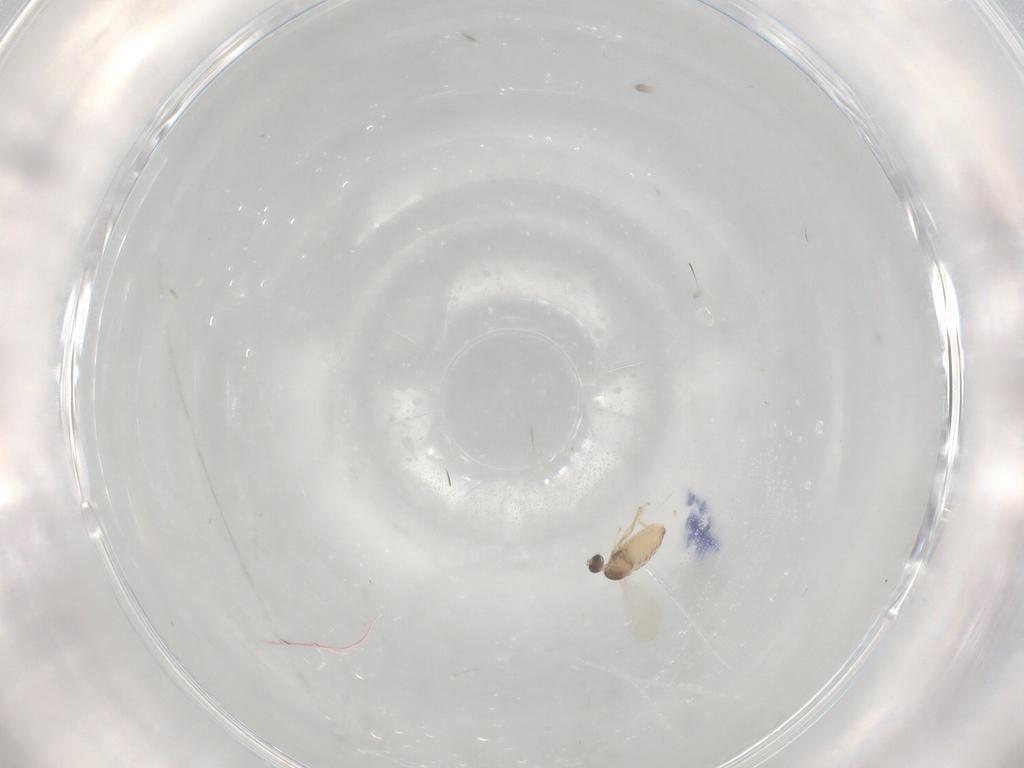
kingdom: Animalia
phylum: Arthropoda
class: Insecta
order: Diptera
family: Cecidomyiidae
